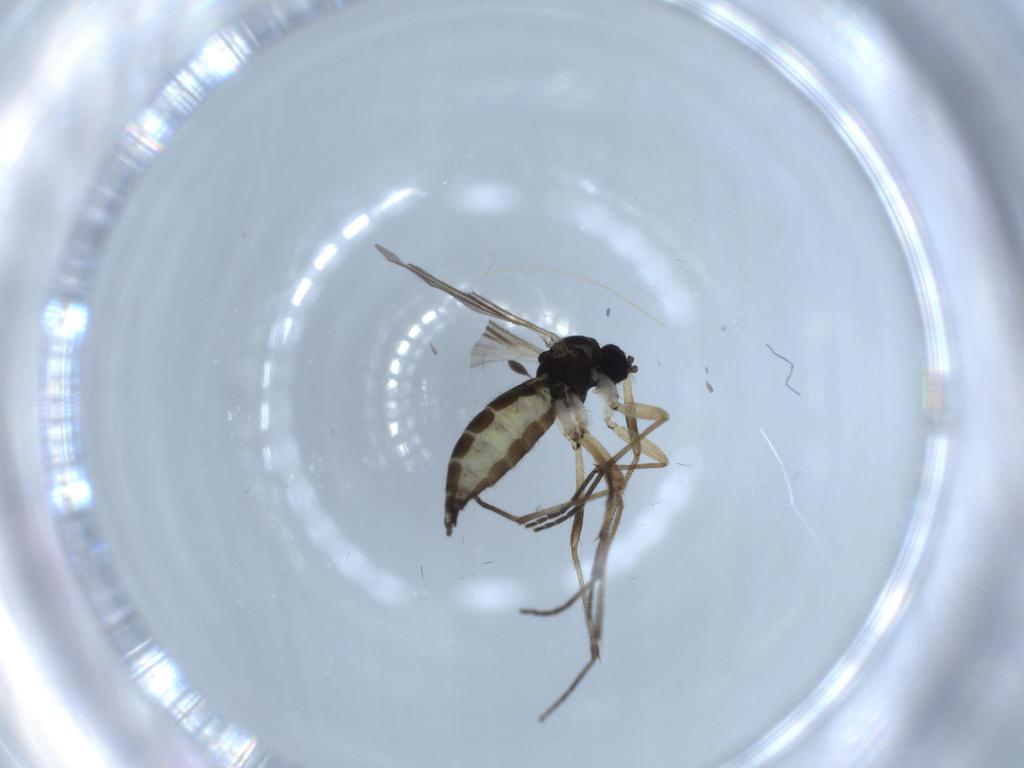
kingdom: Animalia
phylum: Arthropoda
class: Insecta
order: Diptera
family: Sciaridae
